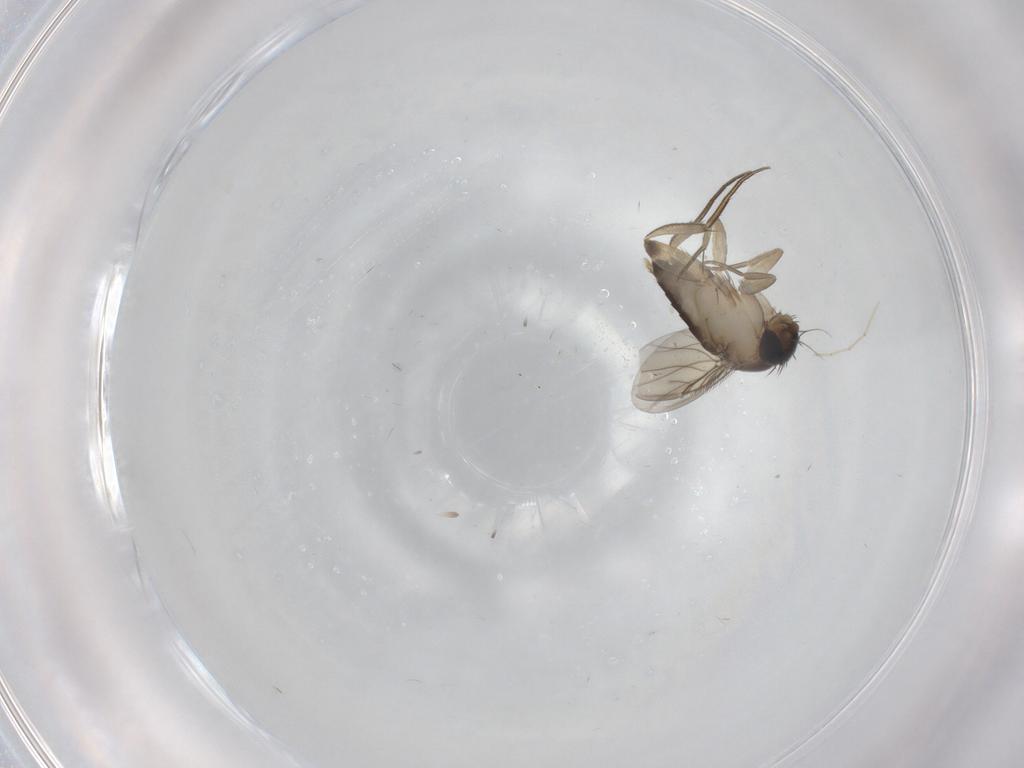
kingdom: Animalia
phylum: Arthropoda
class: Insecta
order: Diptera
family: Phoridae
